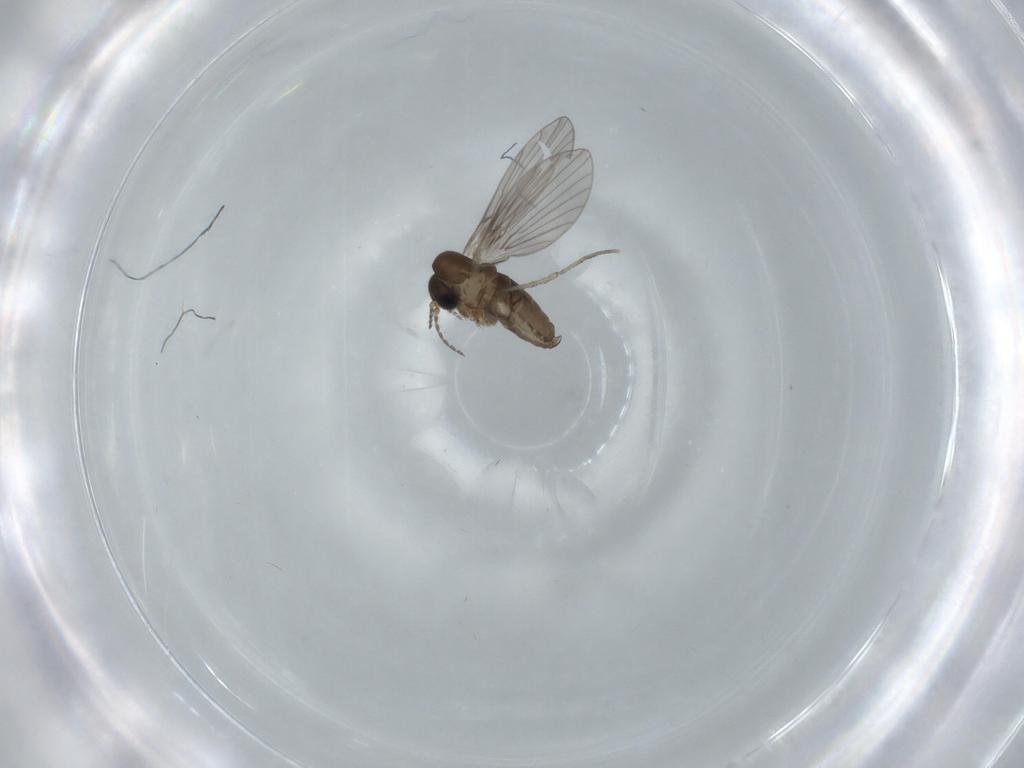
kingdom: Animalia
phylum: Arthropoda
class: Insecta
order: Diptera
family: Psychodidae
